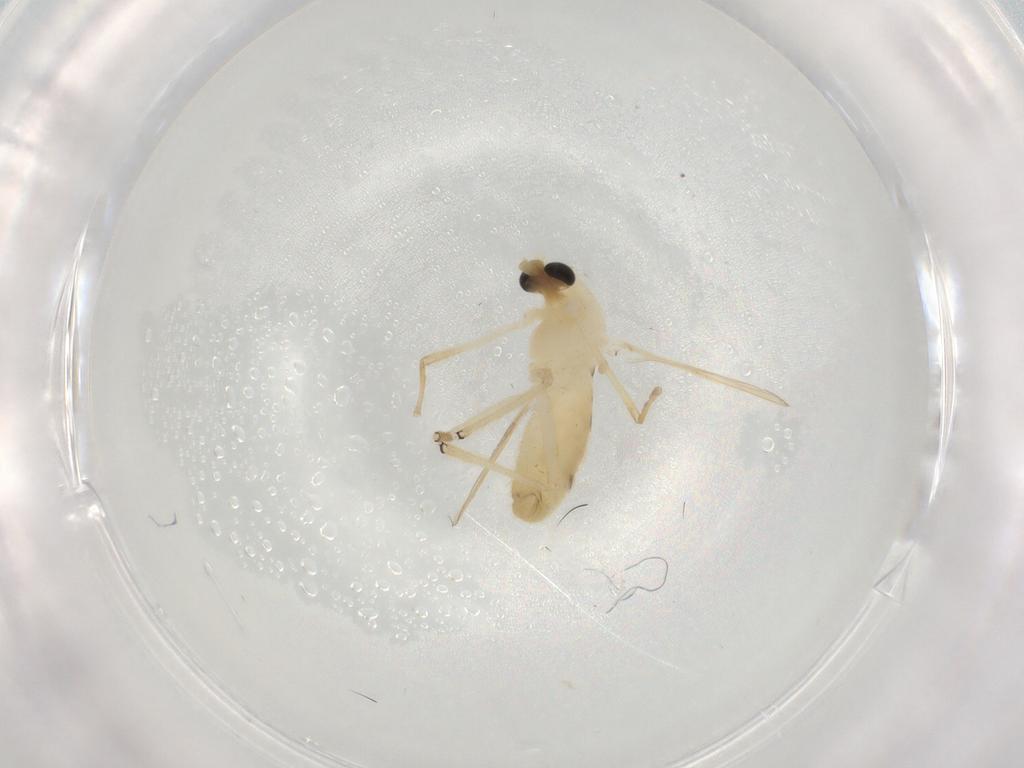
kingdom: Animalia
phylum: Arthropoda
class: Insecta
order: Diptera
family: Chironomidae
